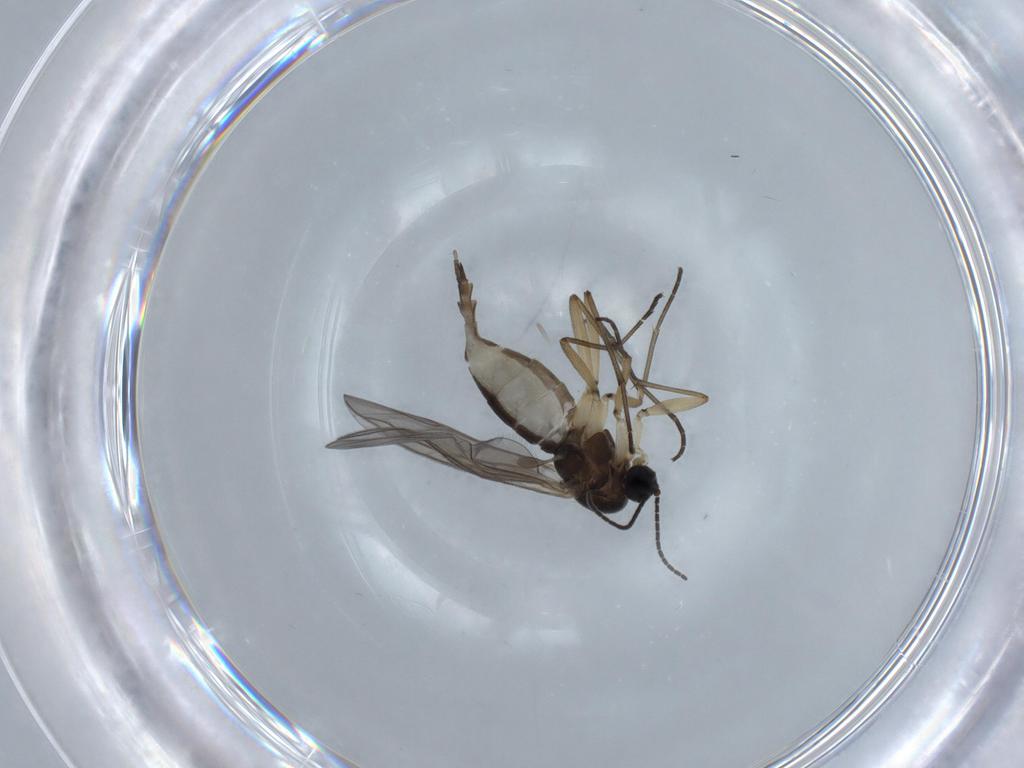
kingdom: Animalia
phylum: Arthropoda
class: Insecta
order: Diptera
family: Sciaridae
